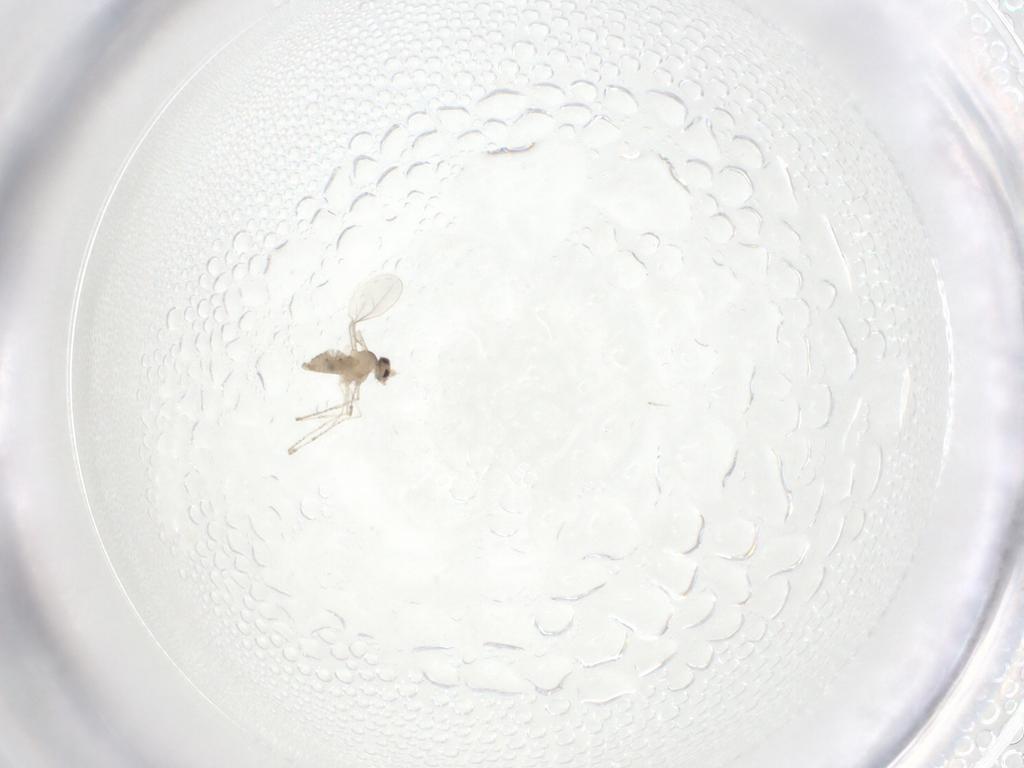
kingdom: Animalia
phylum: Arthropoda
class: Insecta
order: Diptera
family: Cecidomyiidae
